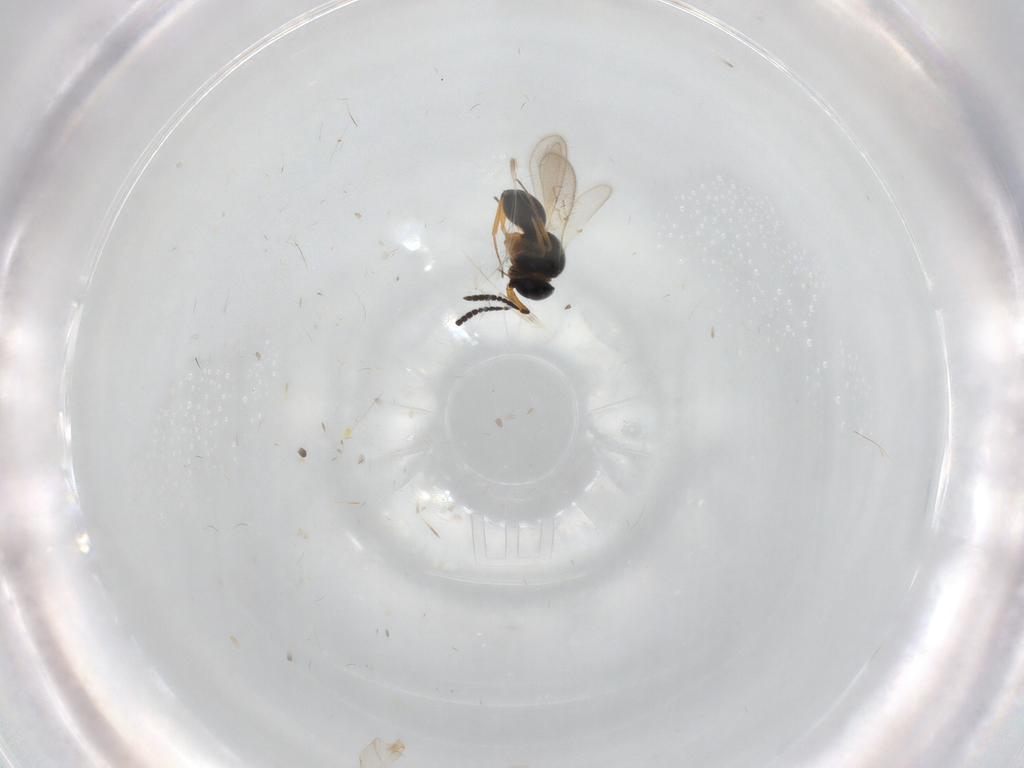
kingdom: Animalia
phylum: Arthropoda
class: Insecta
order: Hymenoptera
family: Scelionidae
